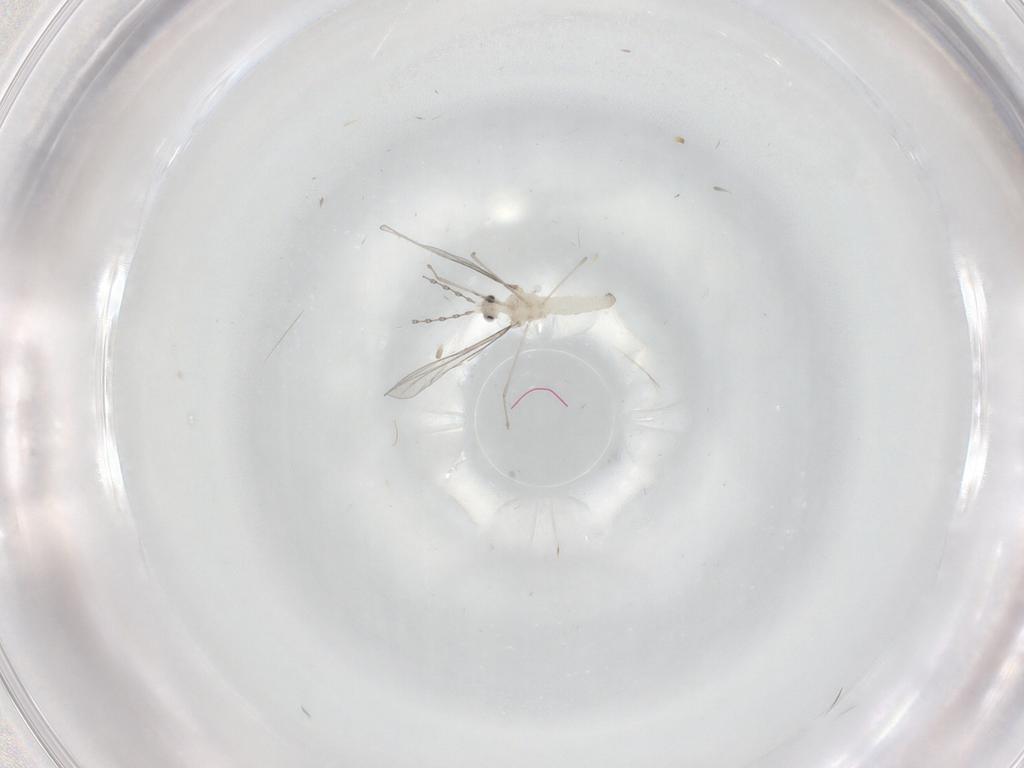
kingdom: Animalia
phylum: Arthropoda
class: Insecta
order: Diptera
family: Cecidomyiidae
